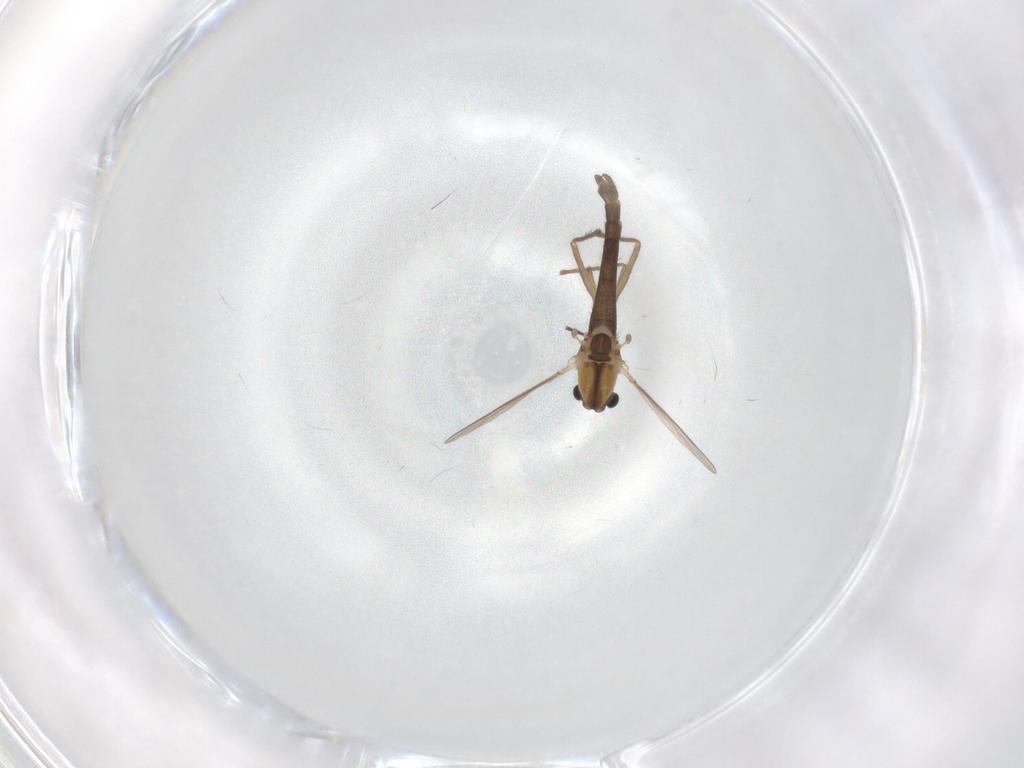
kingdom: Animalia
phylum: Arthropoda
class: Insecta
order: Diptera
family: Chironomidae
